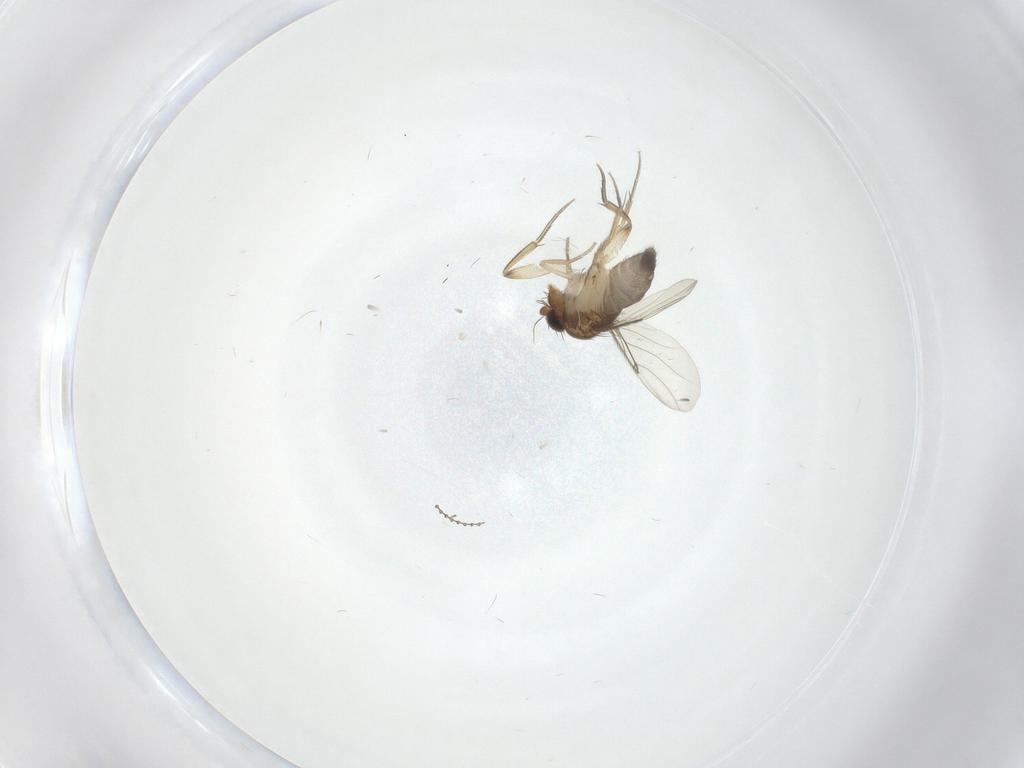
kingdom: Animalia
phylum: Arthropoda
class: Insecta
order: Diptera
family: Phoridae
